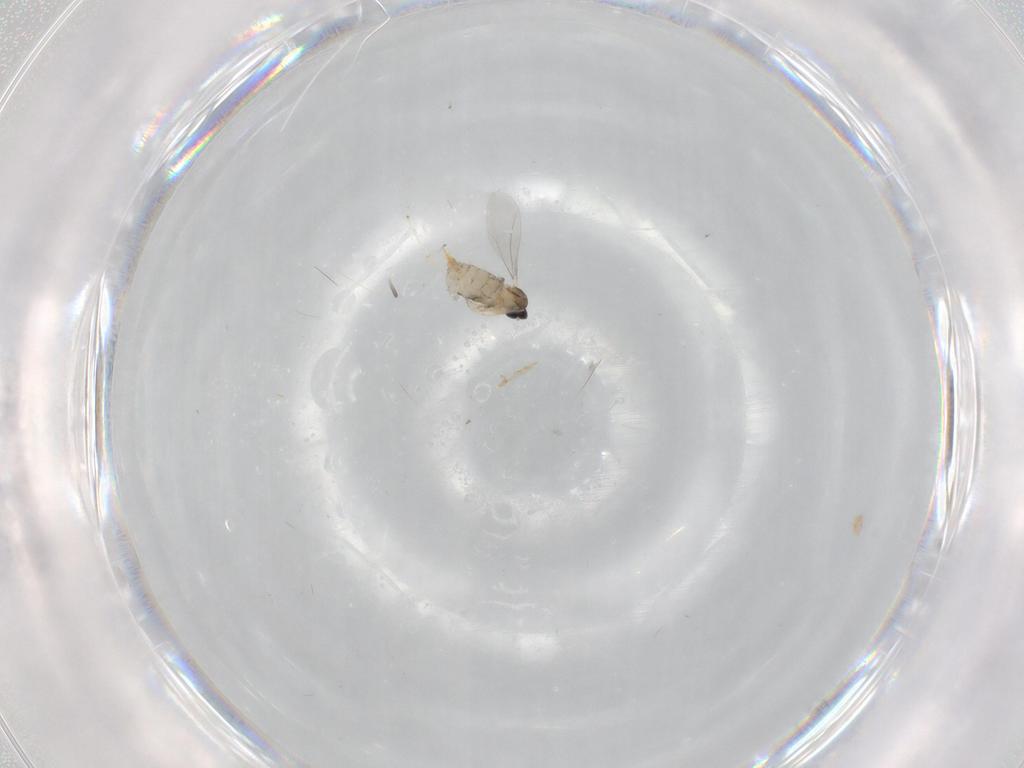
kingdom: Animalia
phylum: Arthropoda
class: Insecta
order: Diptera
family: Cecidomyiidae
